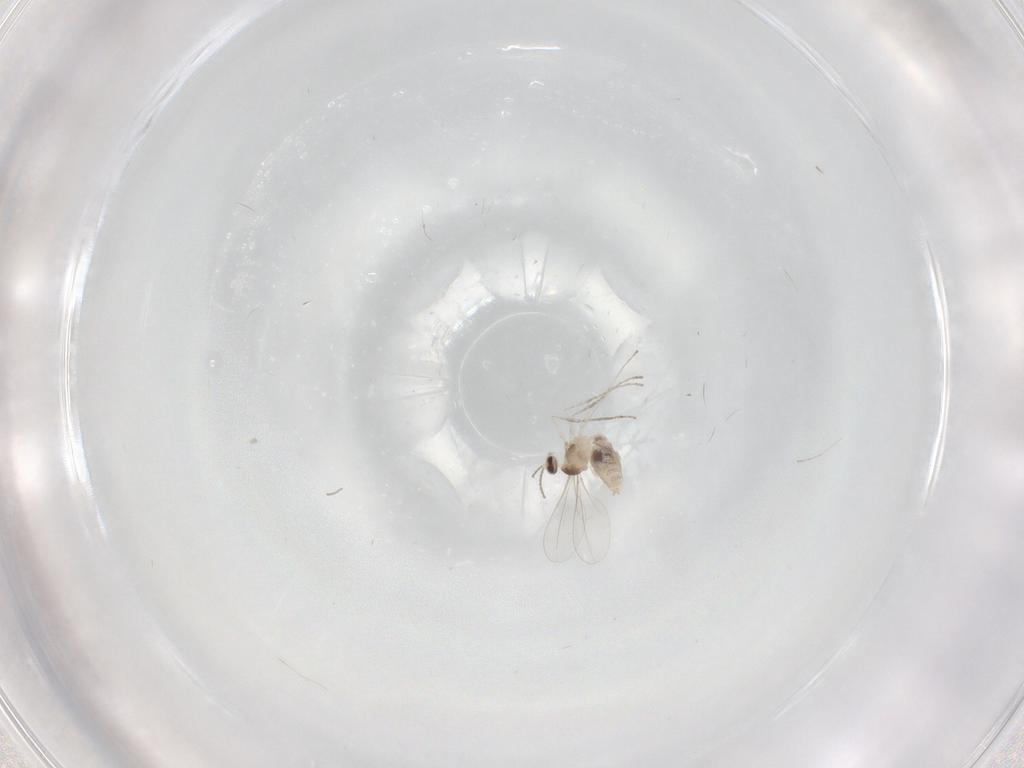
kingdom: Animalia
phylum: Arthropoda
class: Insecta
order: Diptera
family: Cecidomyiidae
